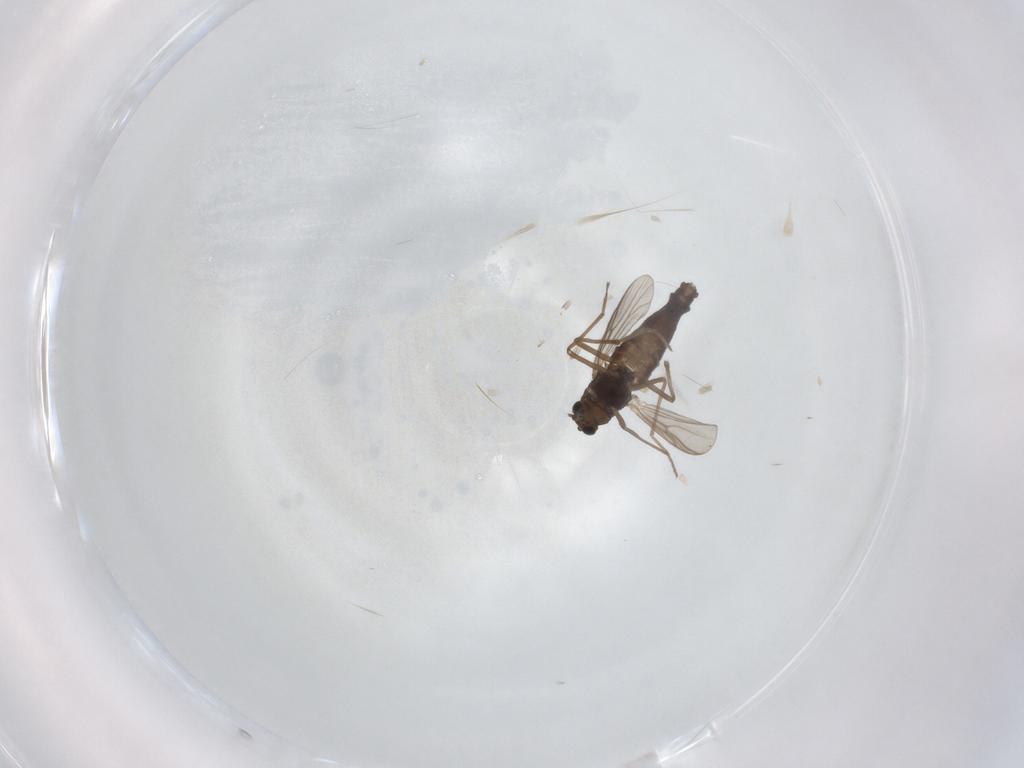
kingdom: Animalia
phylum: Arthropoda
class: Insecta
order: Diptera
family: Chironomidae
